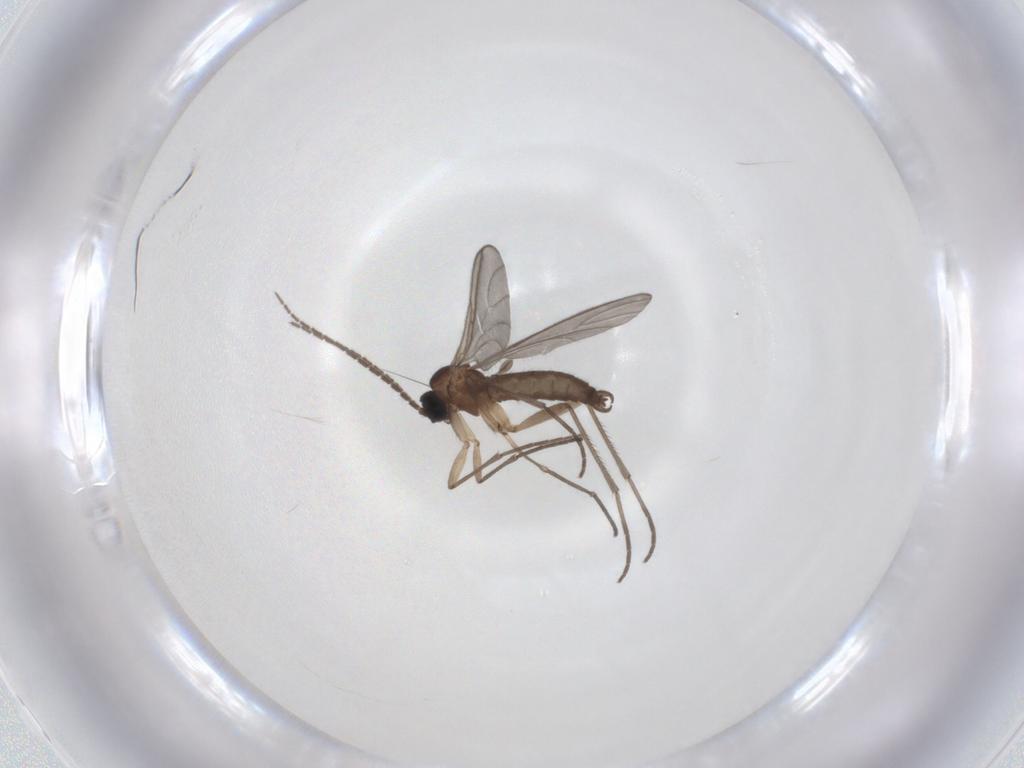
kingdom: Animalia
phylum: Arthropoda
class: Insecta
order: Diptera
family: Sciaridae
